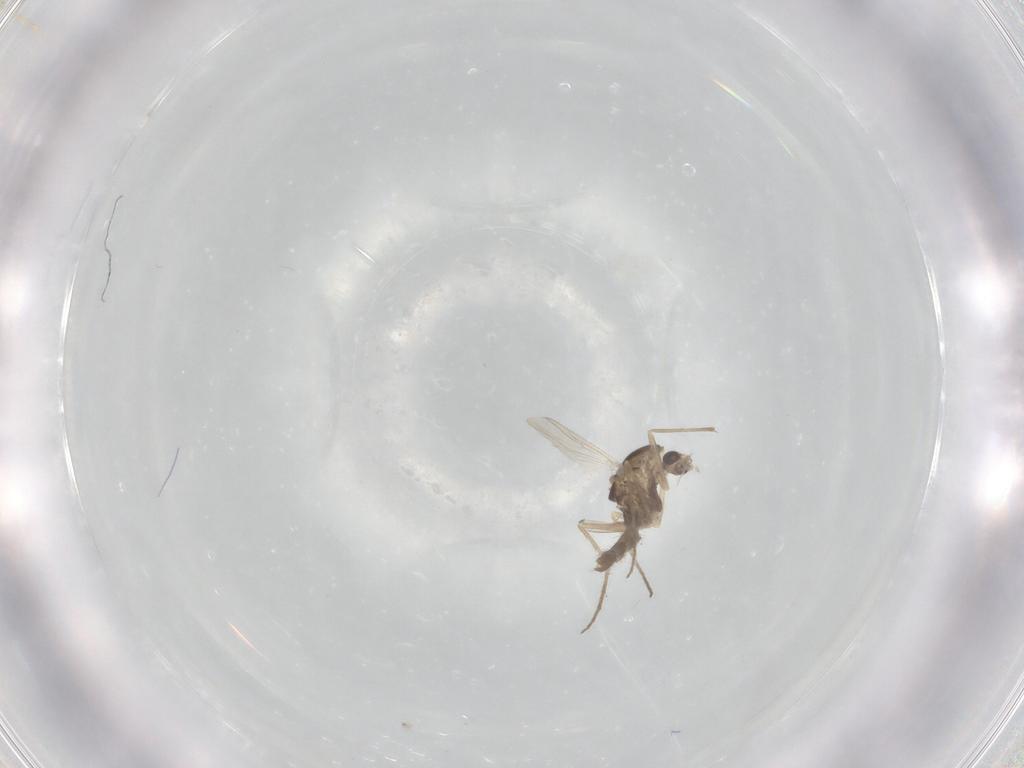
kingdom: Animalia
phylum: Arthropoda
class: Insecta
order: Diptera
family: Chironomidae
